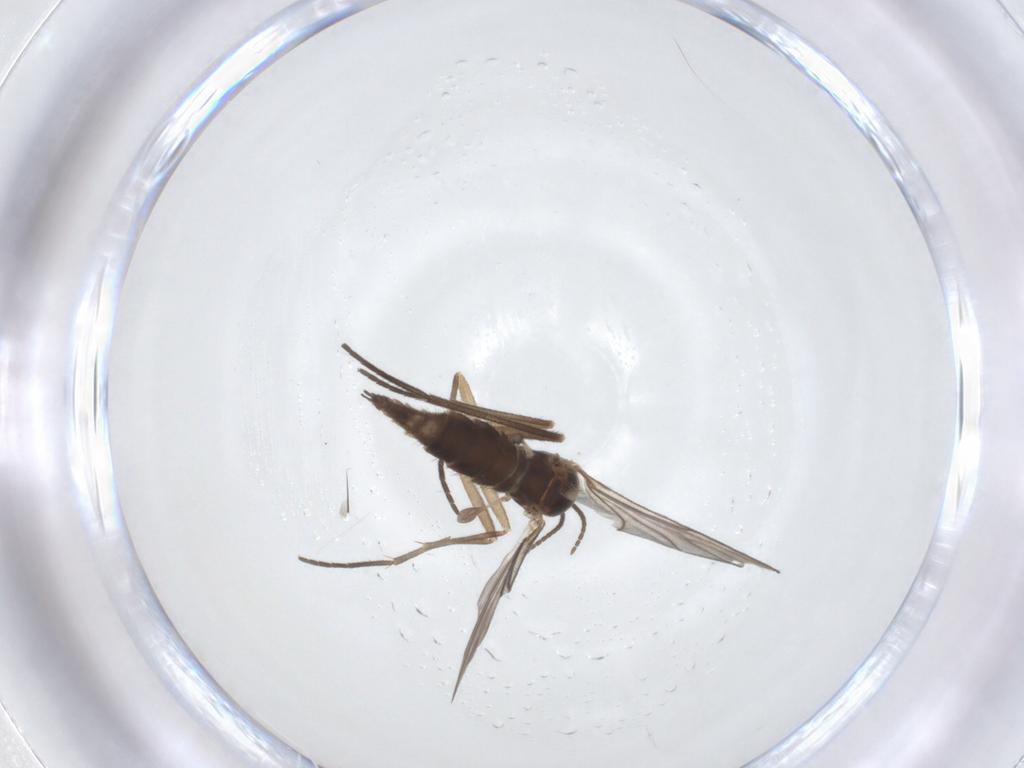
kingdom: Animalia
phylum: Arthropoda
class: Insecta
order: Diptera
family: Sciaridae
